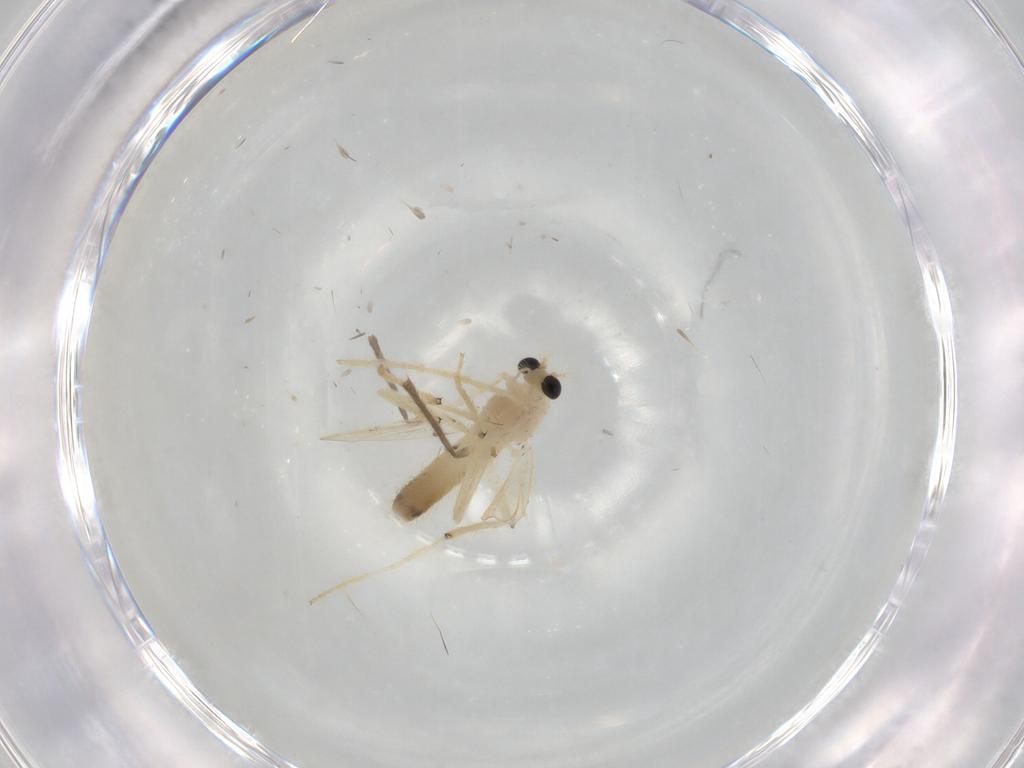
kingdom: Animalia
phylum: Arthropoda
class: Insecta
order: Diptera
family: Chironomidae
